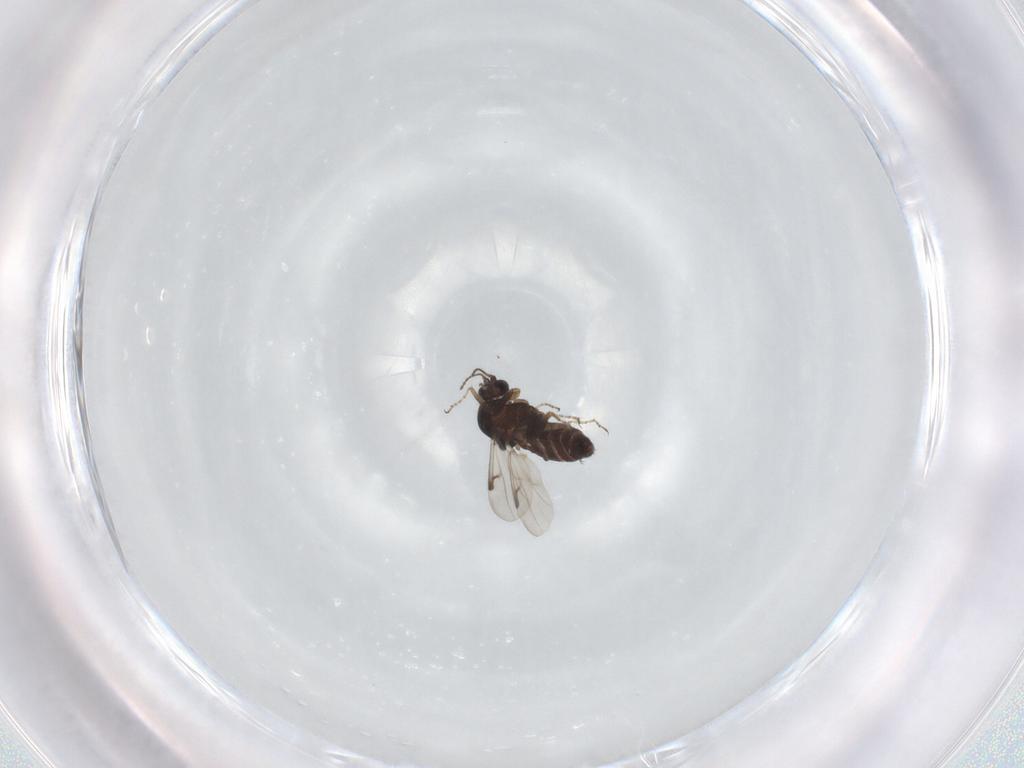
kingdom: Animalia
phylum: Arthropoda
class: Insecta
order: Diptera
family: Ceratopogonidae
